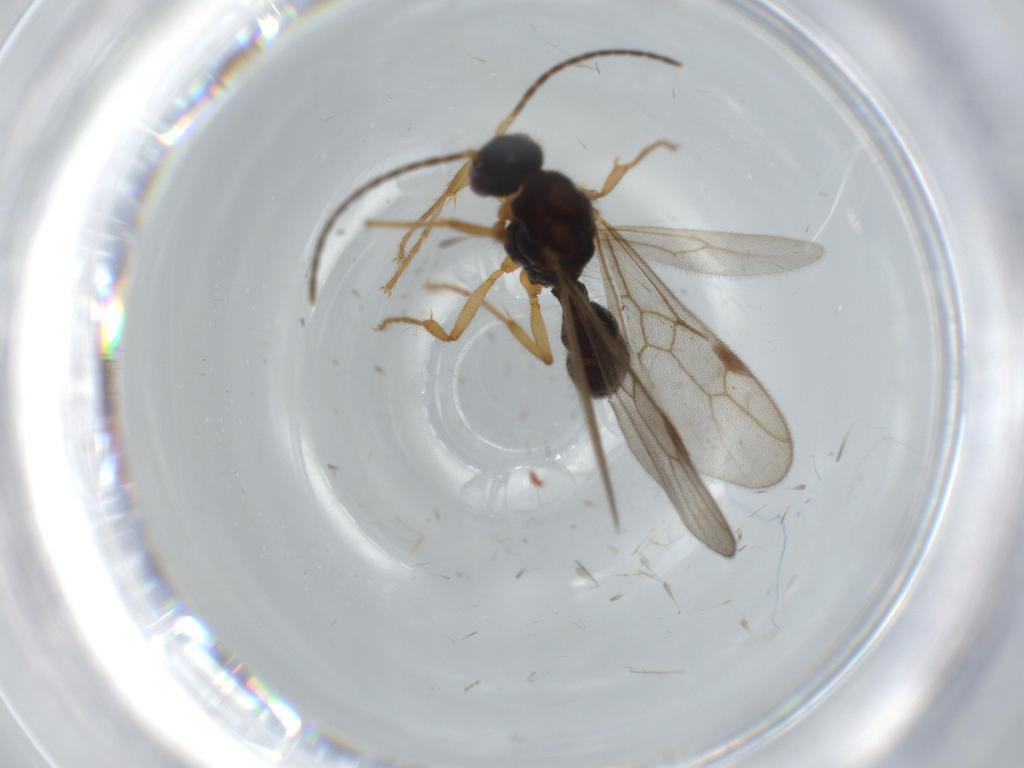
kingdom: Animalia
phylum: Arthropoda
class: Insecta
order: Hymenoptera
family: Formicidae
